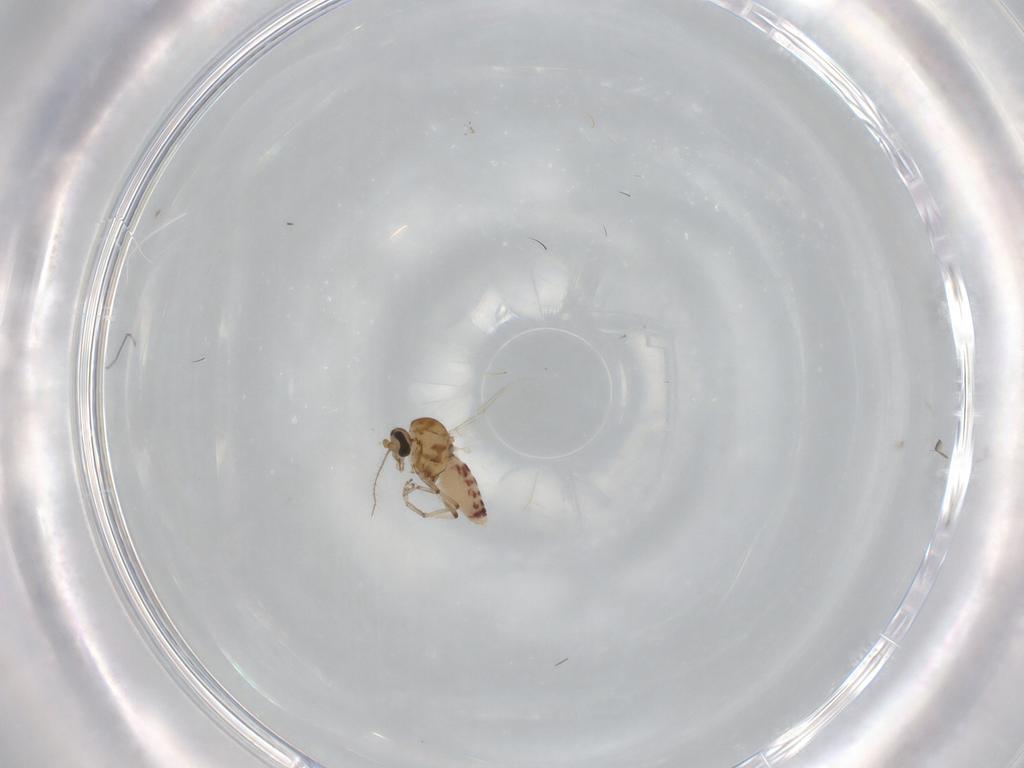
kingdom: Animalia
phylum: Arthropoda
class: Insecta
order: Diptera
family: Ceratopogonidae
